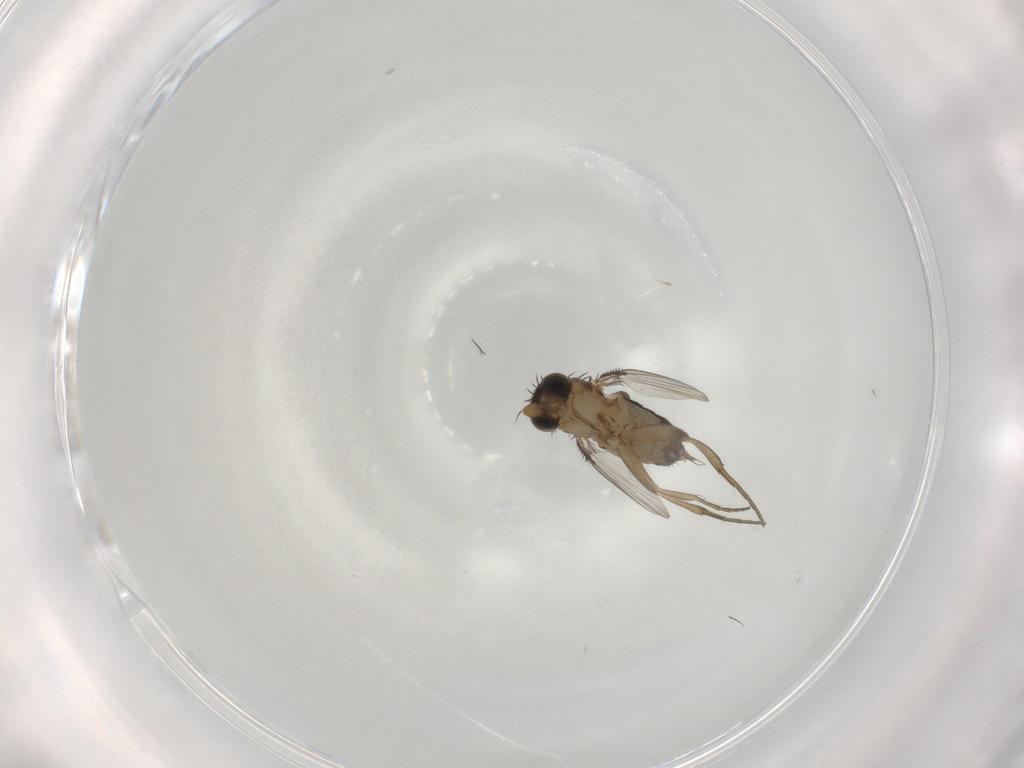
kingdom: Animalia
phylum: Arthropoda
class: Insecta
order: Diptera
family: Phoridae
